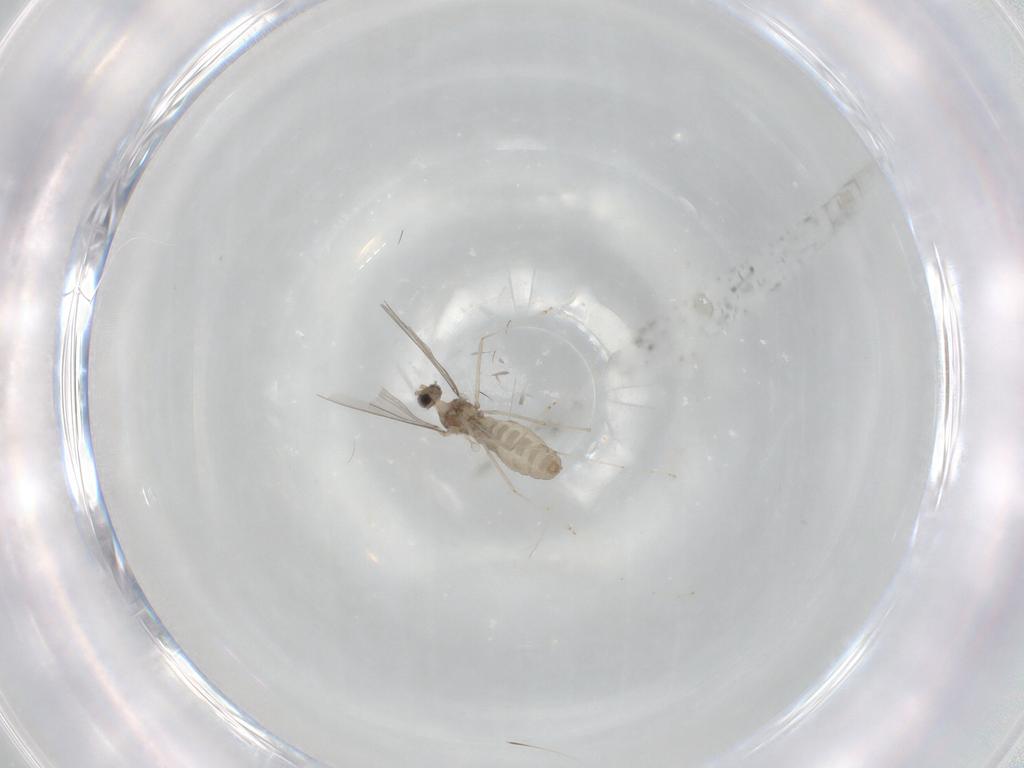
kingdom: Animalia
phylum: Arthropoda
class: Insecta
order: Diptera
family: Cecidomyiidae
